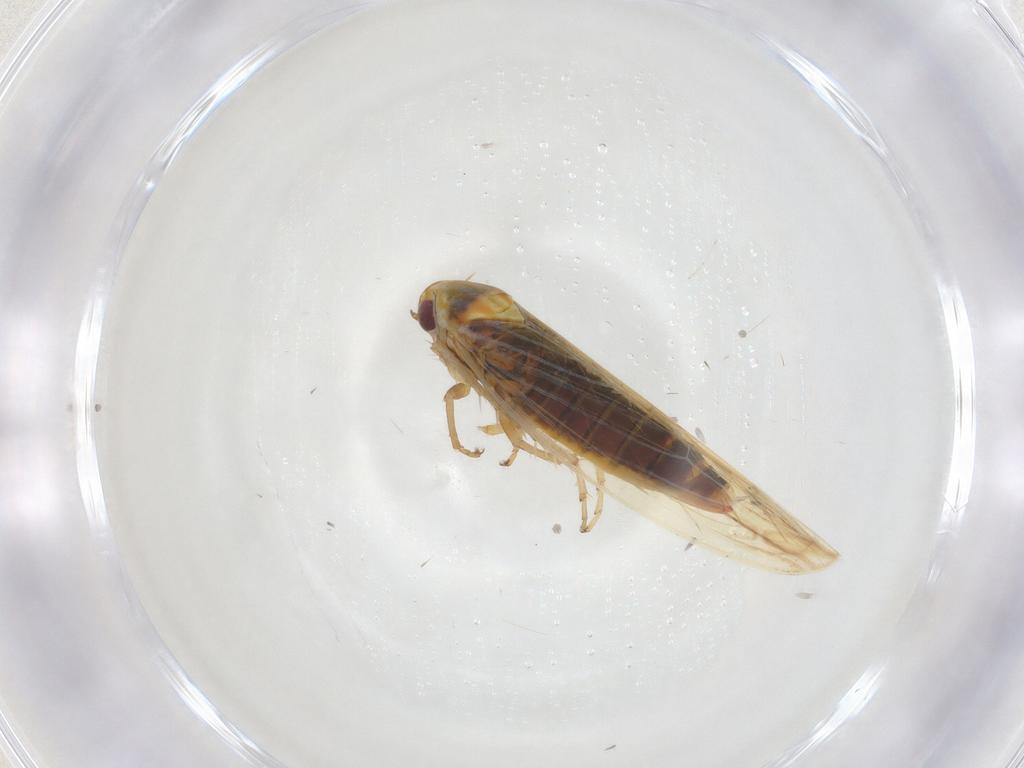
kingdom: Animalia
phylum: Arthropoda
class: Insecta
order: Hemiptera
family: Cicadellidae
